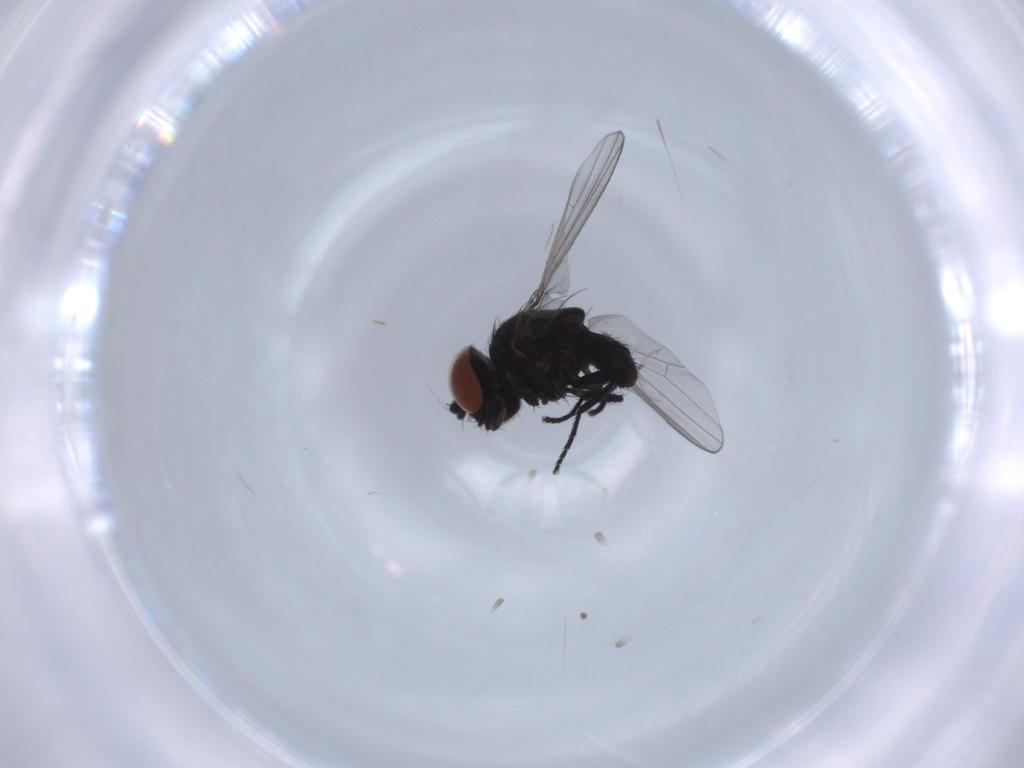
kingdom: Animalia
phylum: Arthropoda
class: Insecta
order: Diptera
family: Milichiidae
